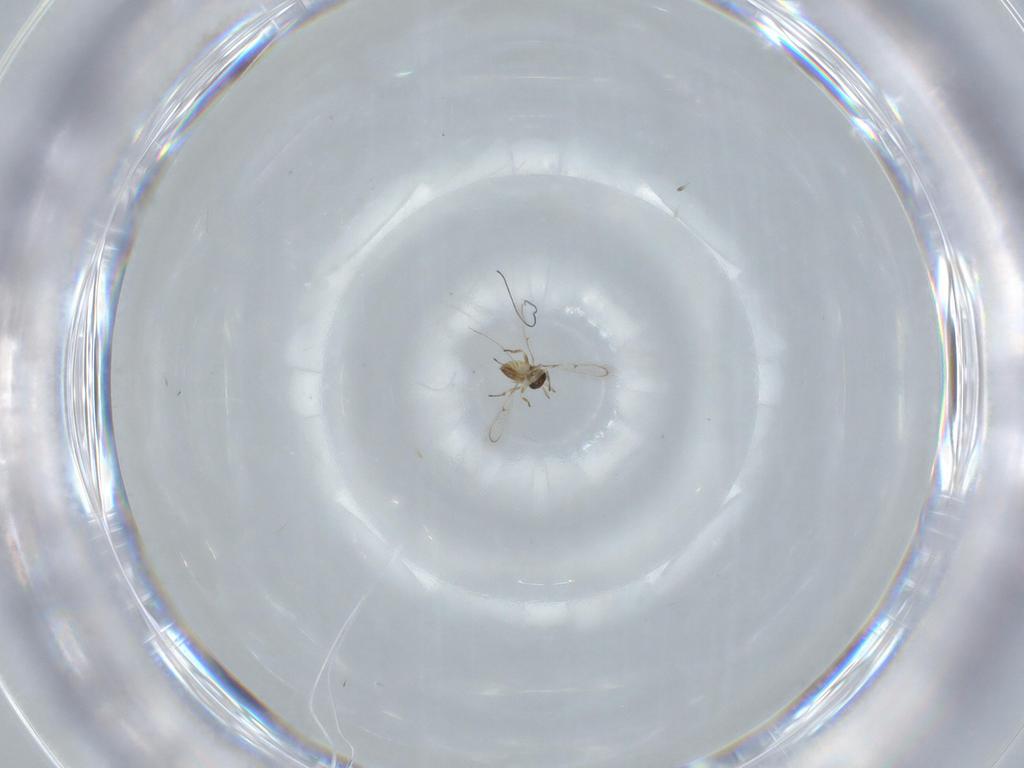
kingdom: Animalia
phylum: Arthropoda
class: Insecta
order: Hymenoptera
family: Trichogrammatidae
